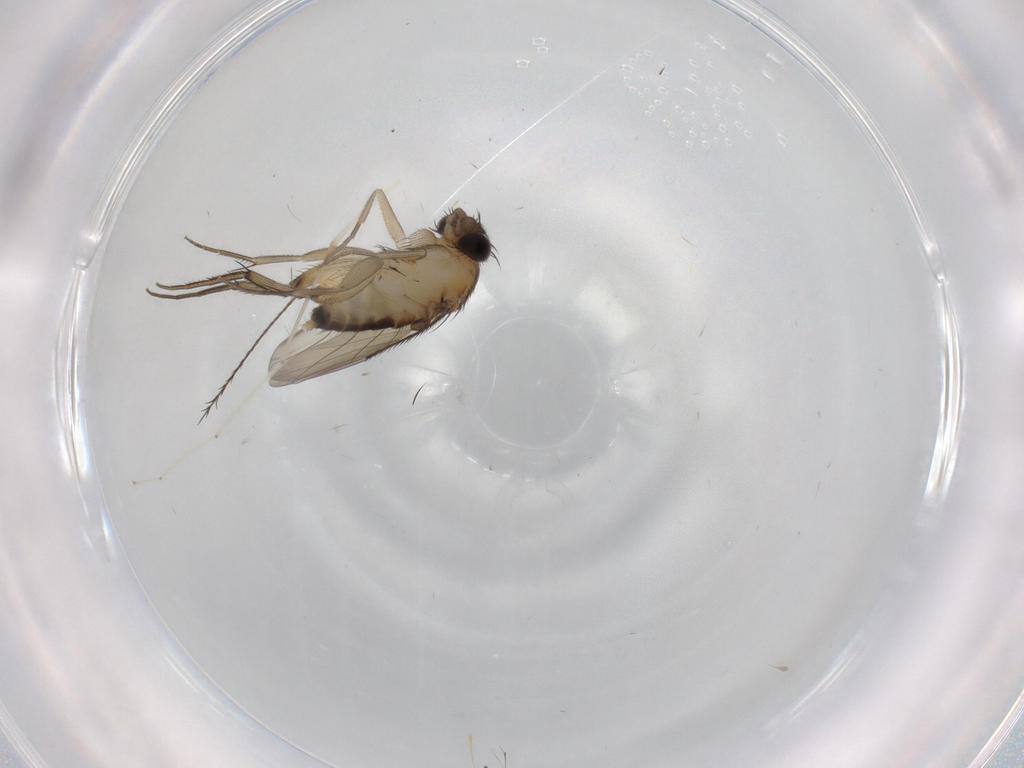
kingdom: Animalia
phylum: Arthropoda
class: Insecta
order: Diptera
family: Phoridae
